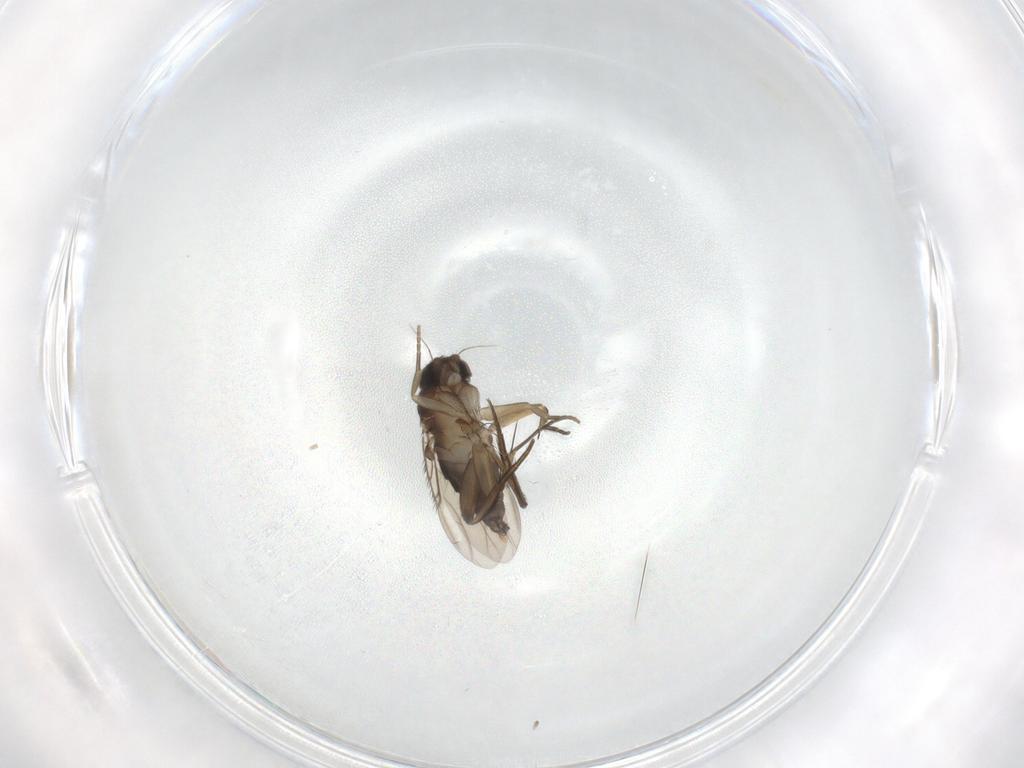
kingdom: Animalia
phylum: Arthropoda
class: Insecta
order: Diptera
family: Phoridae
